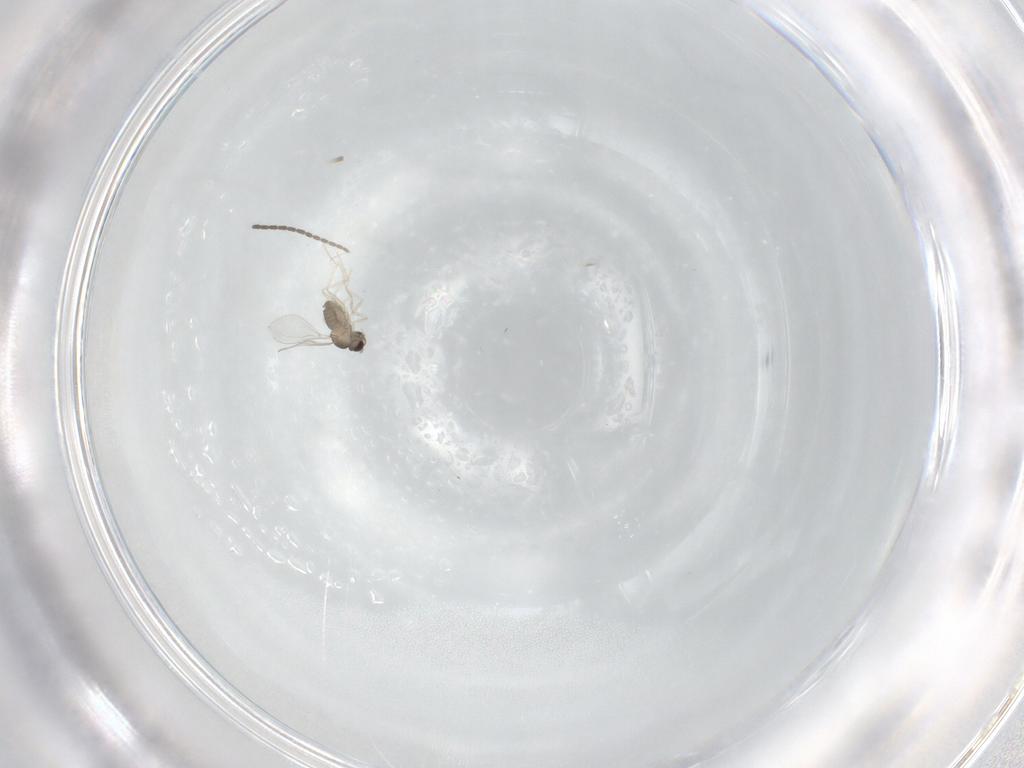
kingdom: Animalia
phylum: Arthropoda
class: Insecta
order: Diptera
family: Cecidomyiidae
